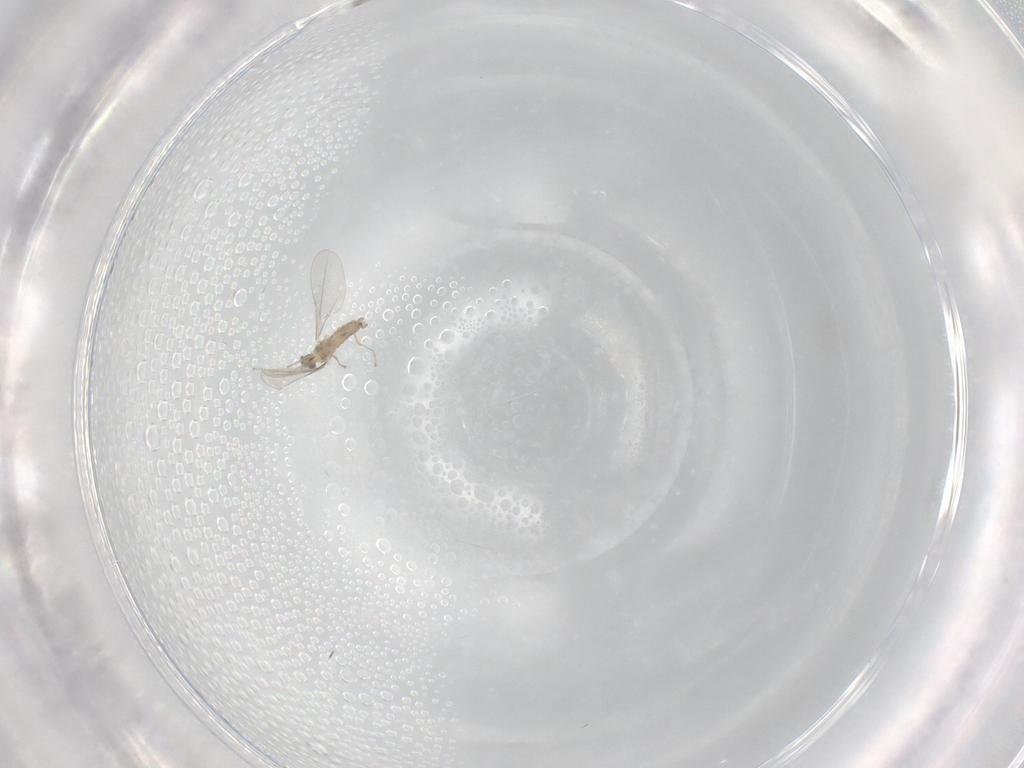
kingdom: Animalia
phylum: Arthropoda
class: Insecta
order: Diptera
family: Cecidomyiidae
